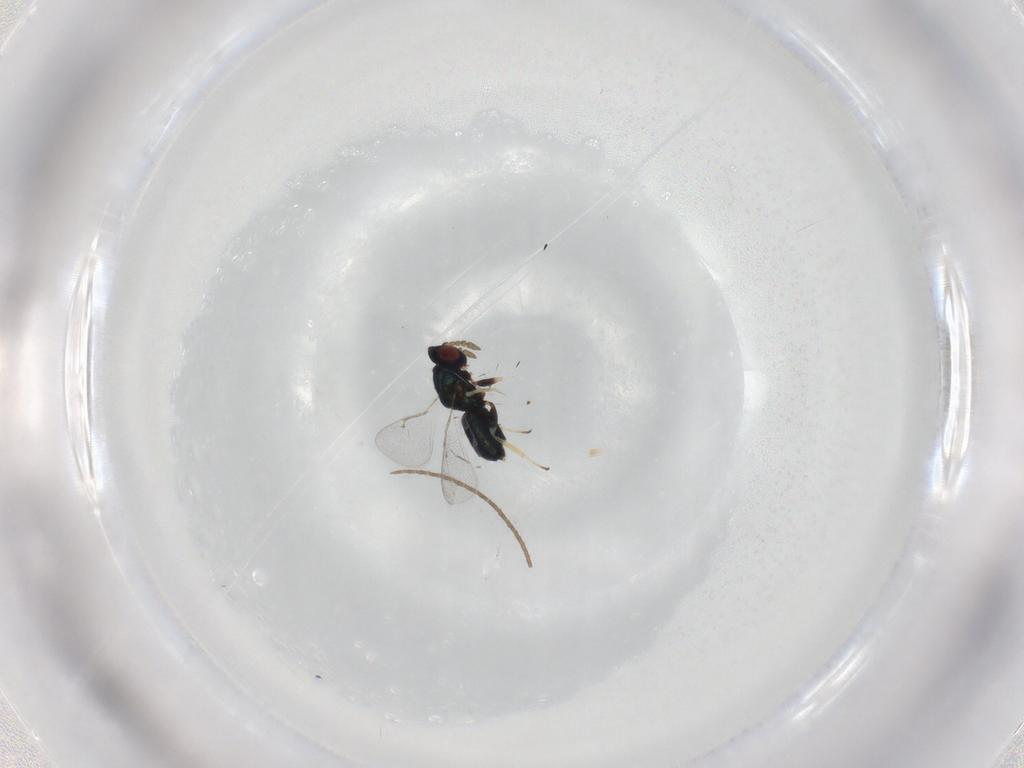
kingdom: Animalia
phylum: Arthropoda
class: Insecta
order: Hymenoptera
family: Eulophidae
